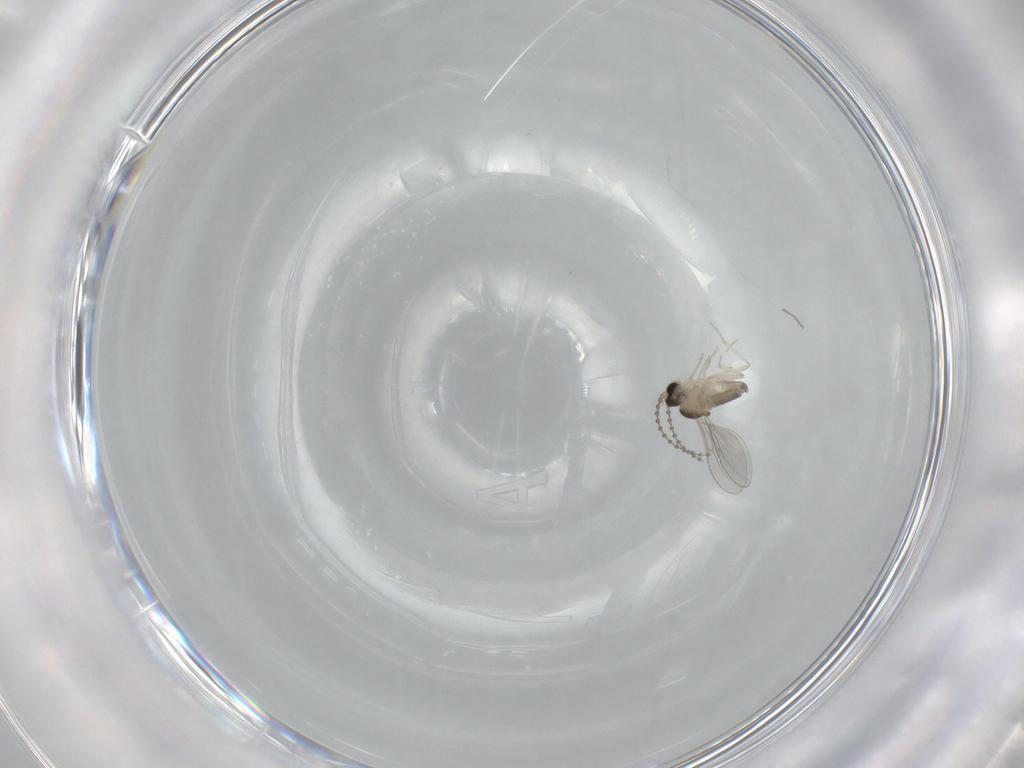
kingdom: Animalia
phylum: Arthropoda
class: Insecta
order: Diptera
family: Cecidomyiidae
